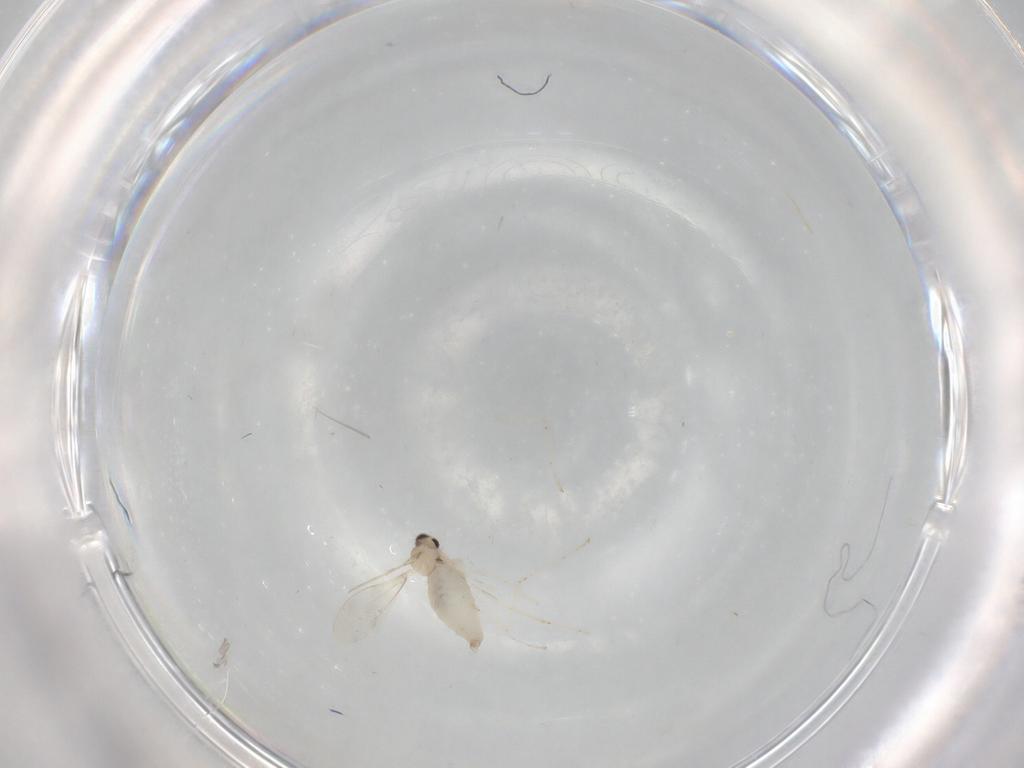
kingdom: Animalia
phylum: Arthropoda
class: Insecta
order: Diptera
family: Cecidomyiidae
